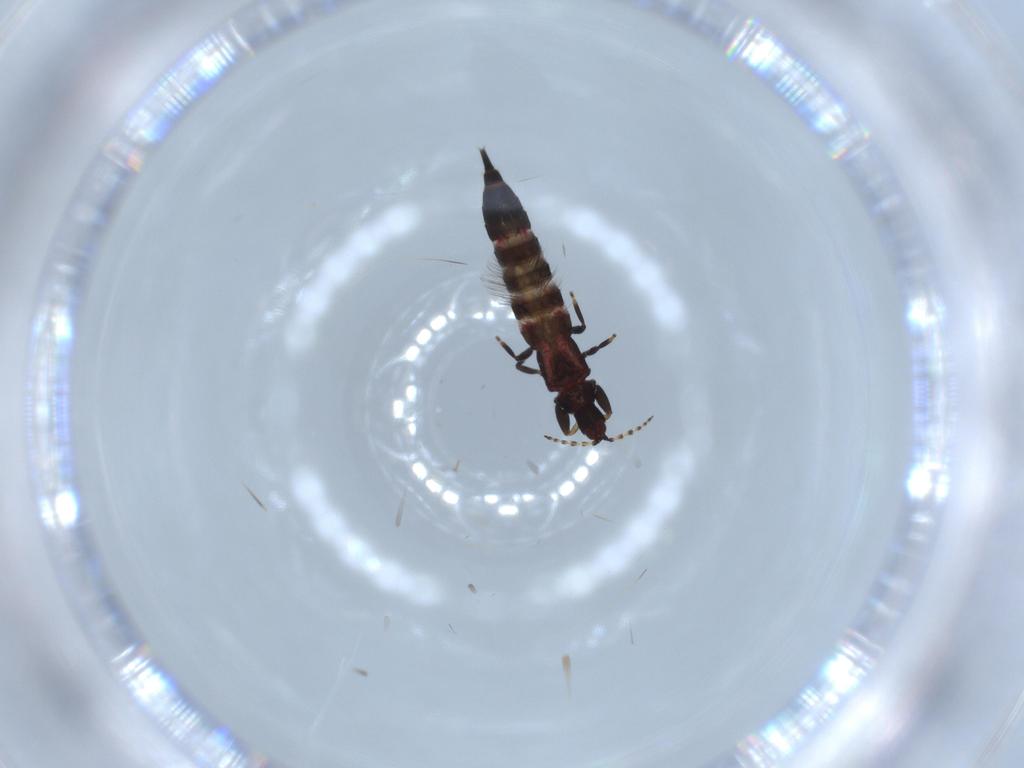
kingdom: Animalia
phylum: Arthropoda
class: Insecta
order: Thysanoptera
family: Phlaeothripidae
